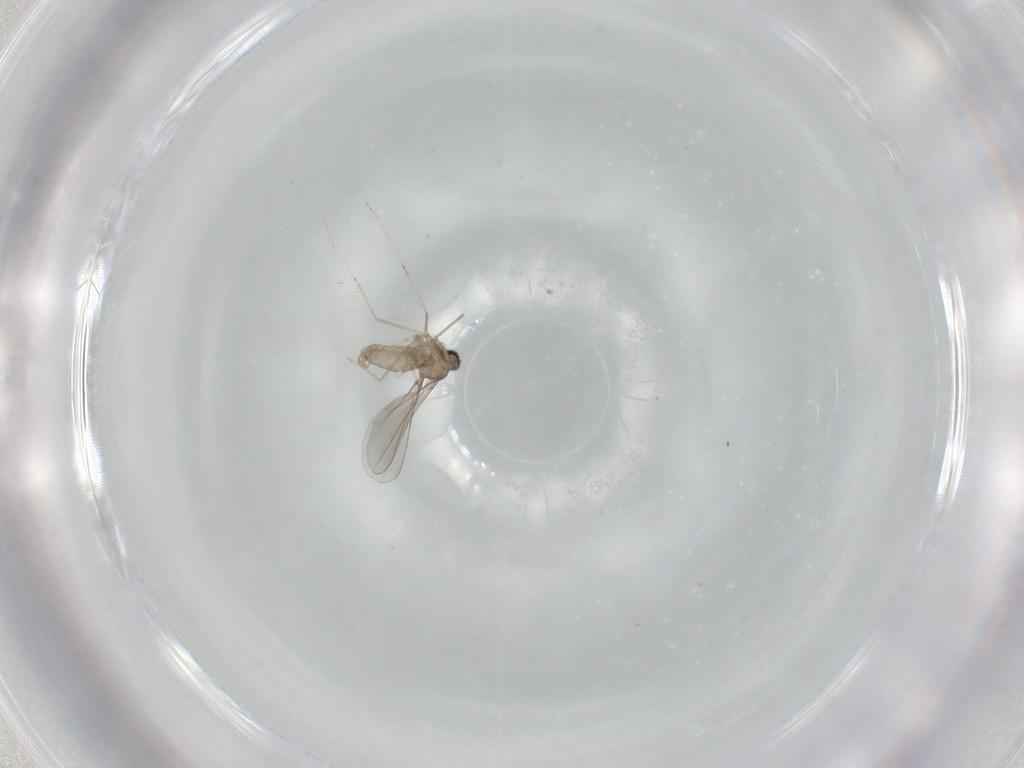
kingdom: Animalia
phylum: Arthropoda
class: Insecta
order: Diptera
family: Cecidomyiidae
